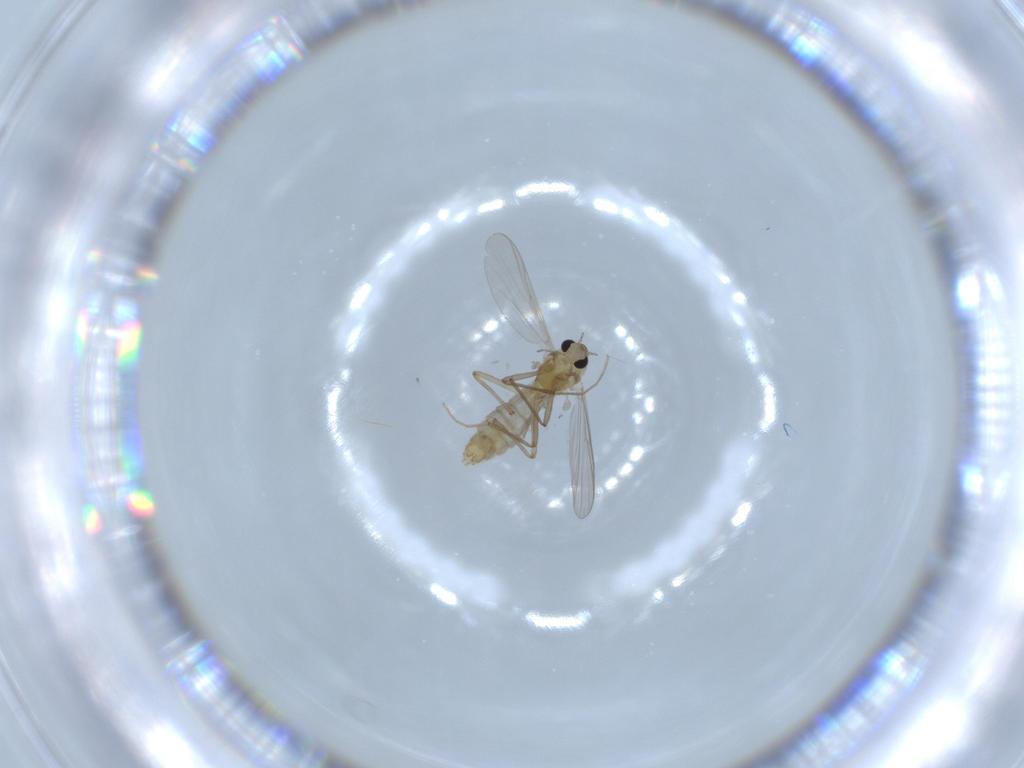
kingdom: Animalia
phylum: Arthropoda
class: Insecta
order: Diptera
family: Chironomidae
